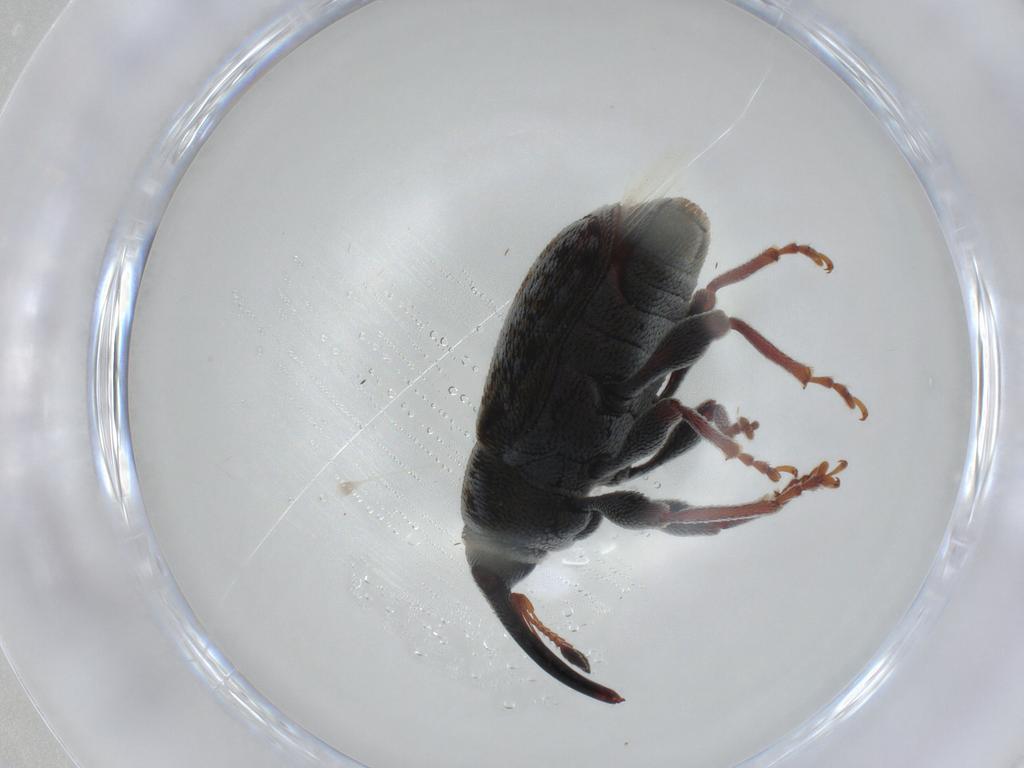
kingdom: Animalia
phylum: Arthropoda
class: Insecta
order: Coleoptera
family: Curculionidae
